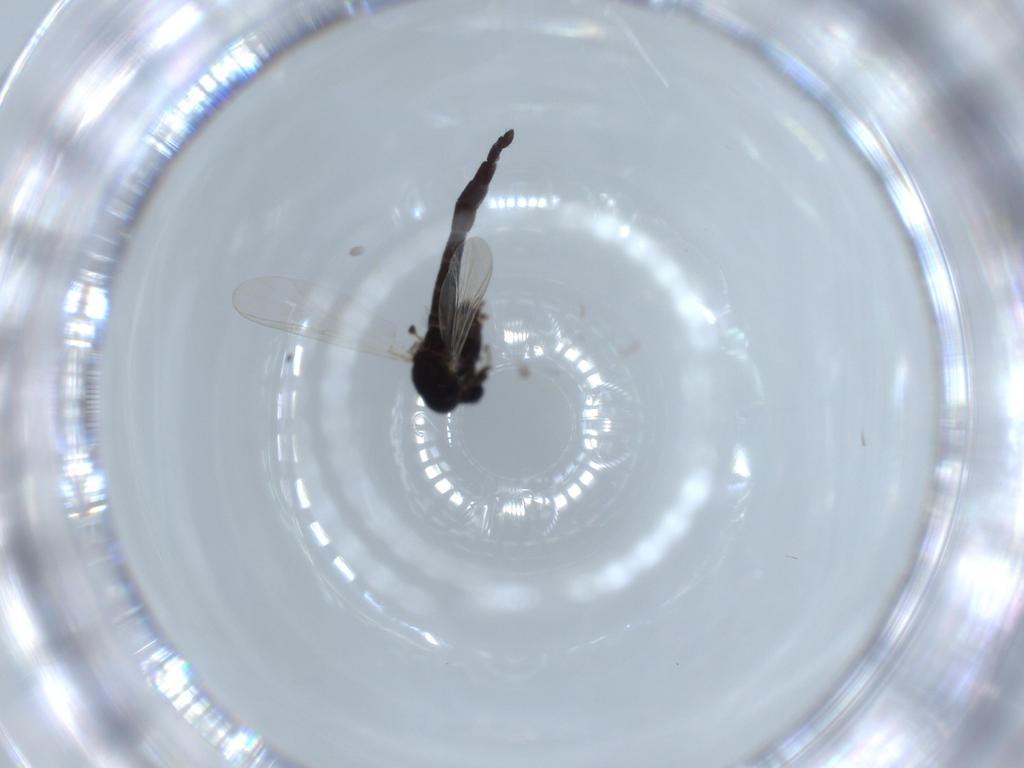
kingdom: Animalia
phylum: Arthropoda
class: Insecta
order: Diptera
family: Chironomidae
